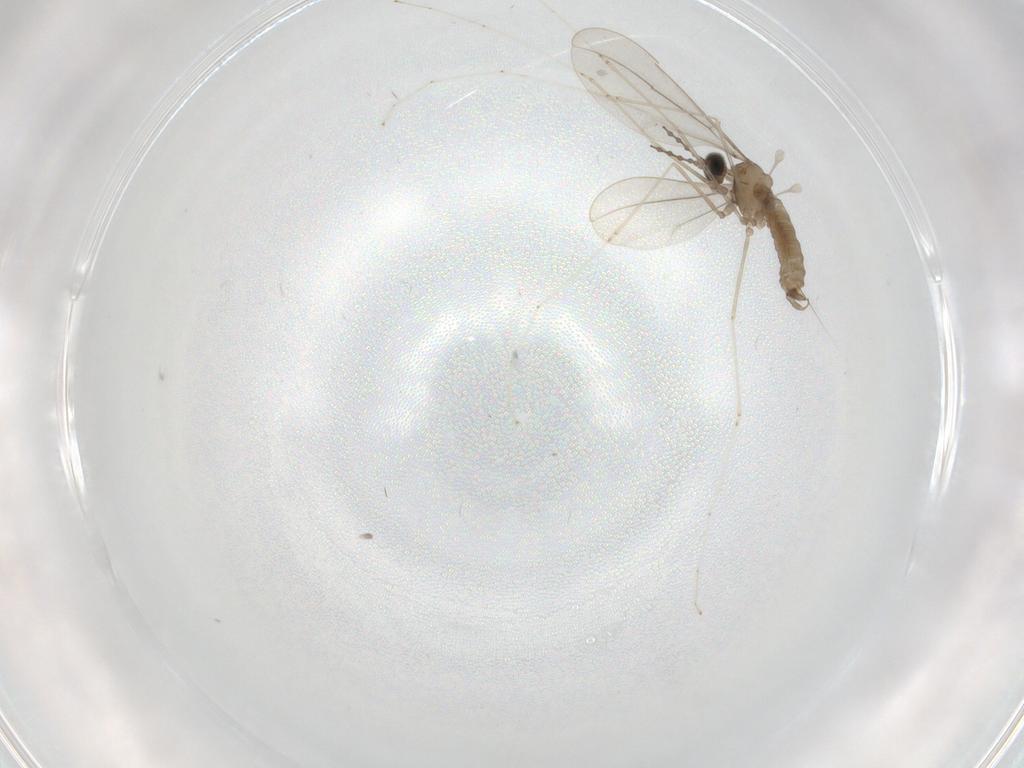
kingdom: Animalia
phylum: Arthropoda
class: Insecta
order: Diptera
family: Cecidomyiidae
